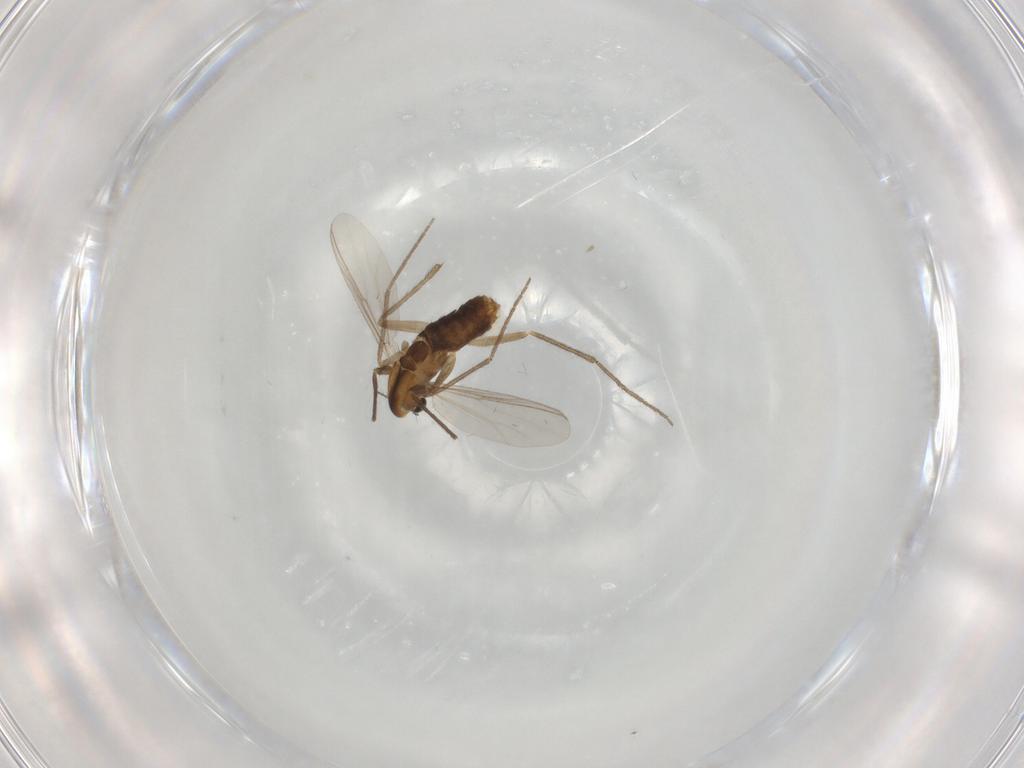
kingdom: Animalia
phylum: Arthropoda
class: Insecta
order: Diptera
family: Chironomidae
